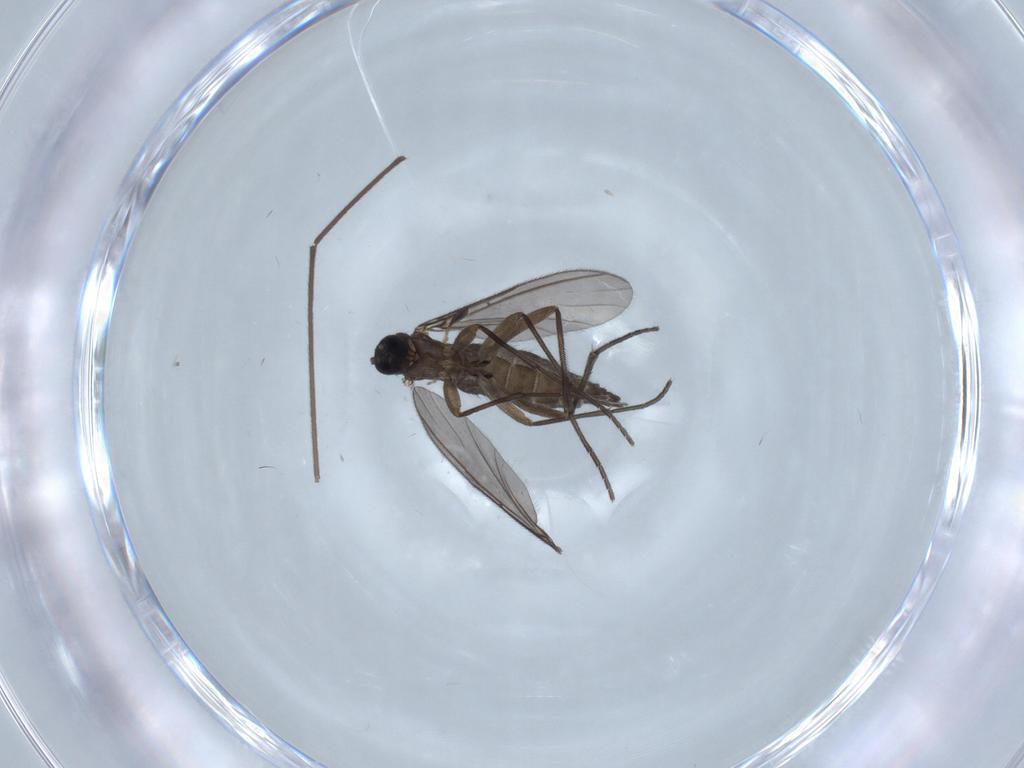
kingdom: Animalia
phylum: Arthropoda
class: Insecta
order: Diptera
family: Sciaridae
